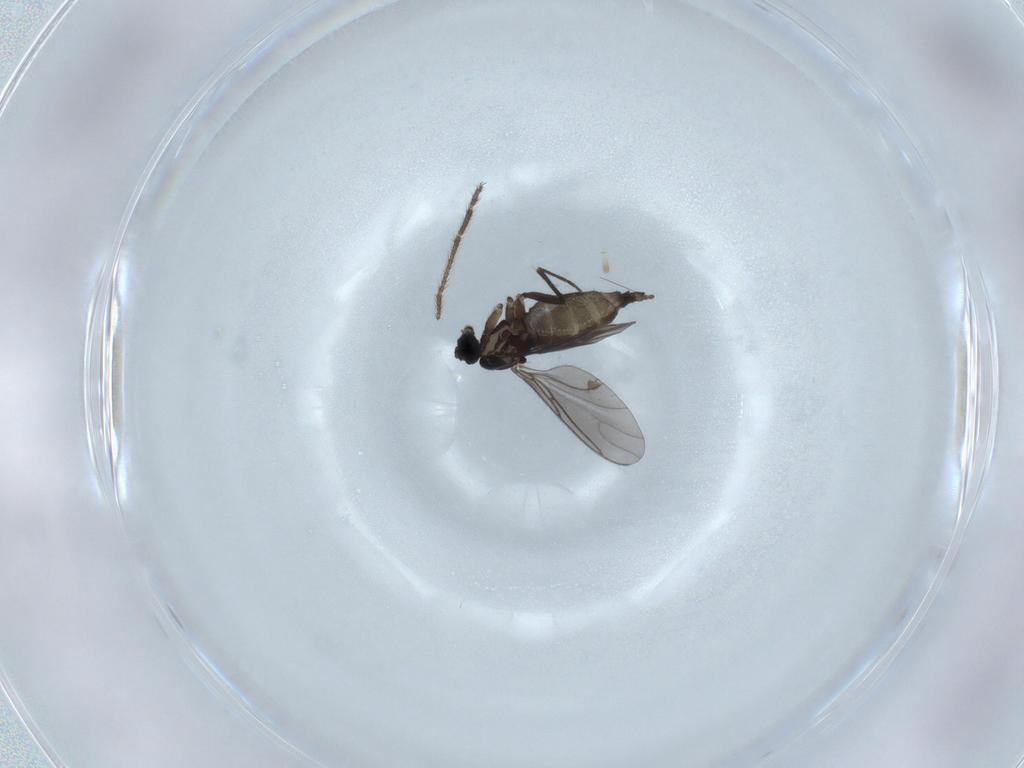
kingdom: Animalia
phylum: Arthropoda
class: Insecta
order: Diptera
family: Sciaridae
